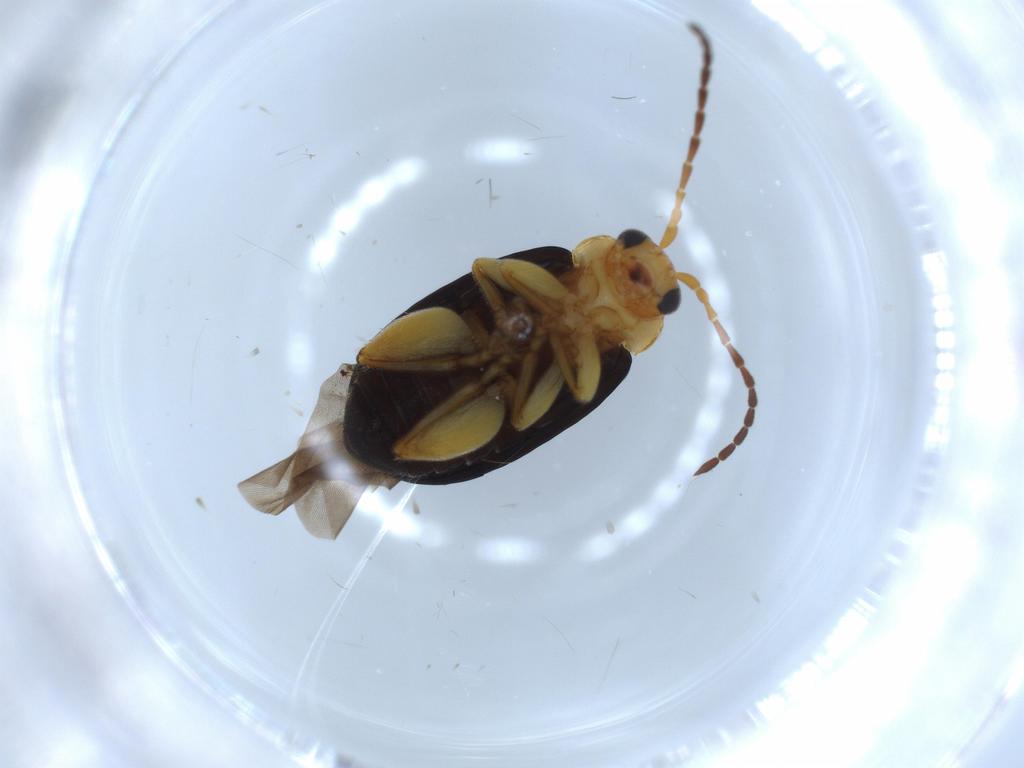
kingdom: Animalia
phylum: Arthropoda
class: Insecta
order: Coleoptera
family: Chrysomelidae
